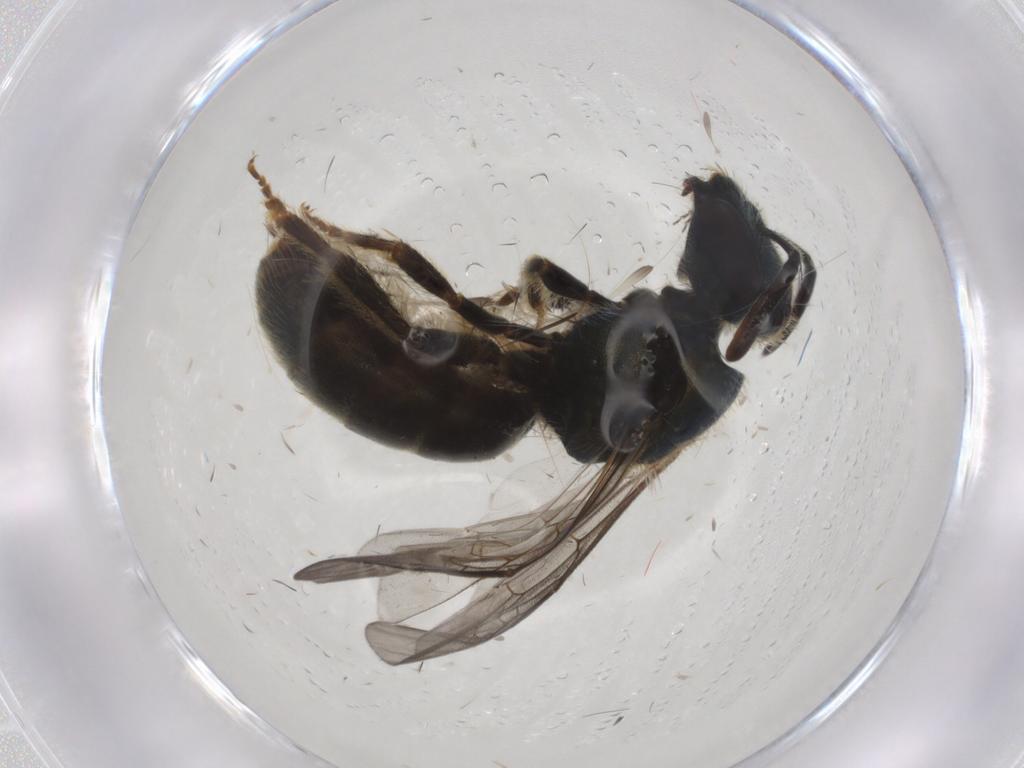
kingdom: Animalia
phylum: Arthropoda
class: Insecta
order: Hymenoptera
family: Halictidae
